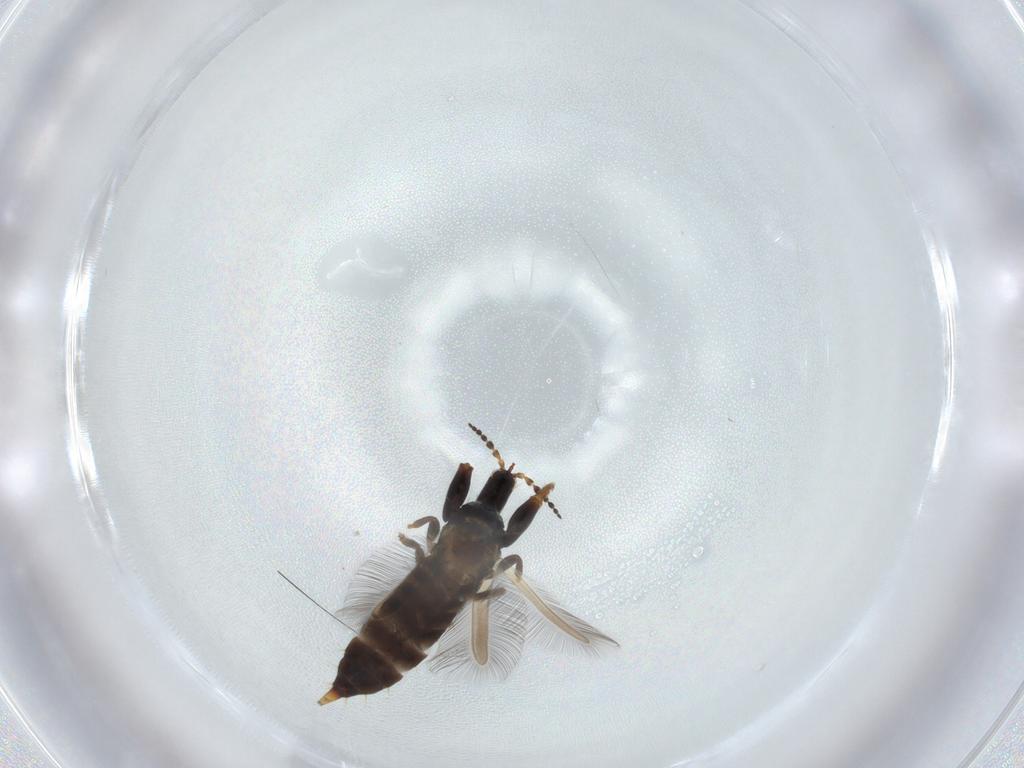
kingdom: Animalia
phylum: Arthropoda
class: Insecta
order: Thysanoptera
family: Phlaeothripidae
